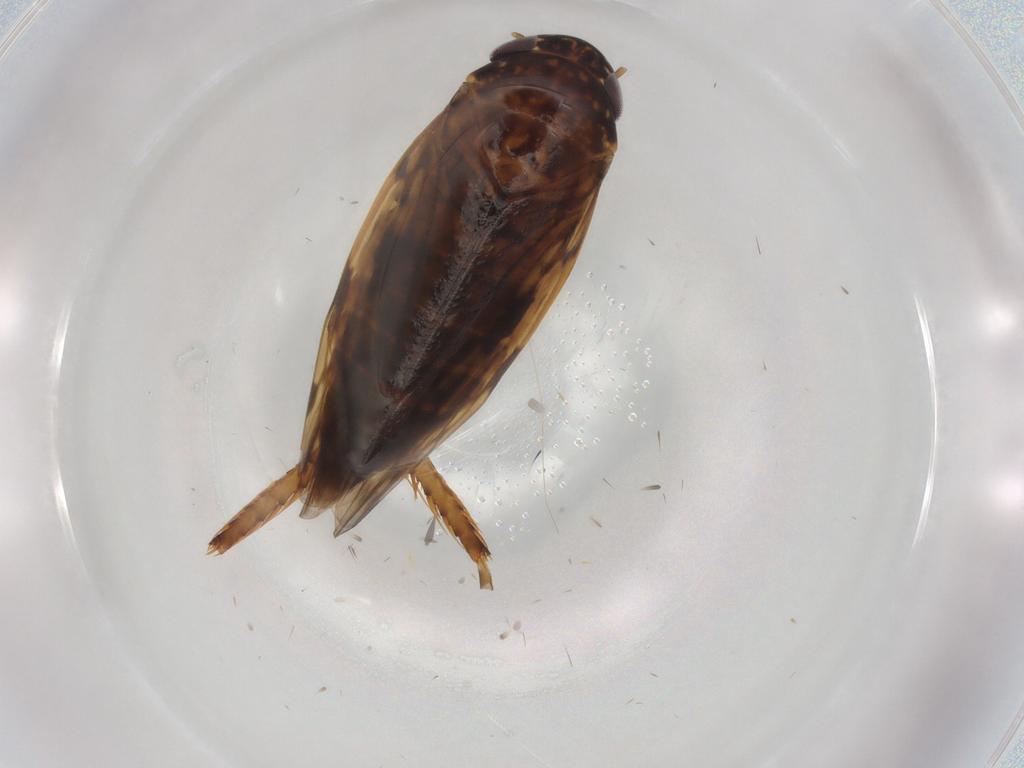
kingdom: Animalia
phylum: Arthropoda
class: Insecta
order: Hemiptera
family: Cicadellidae
